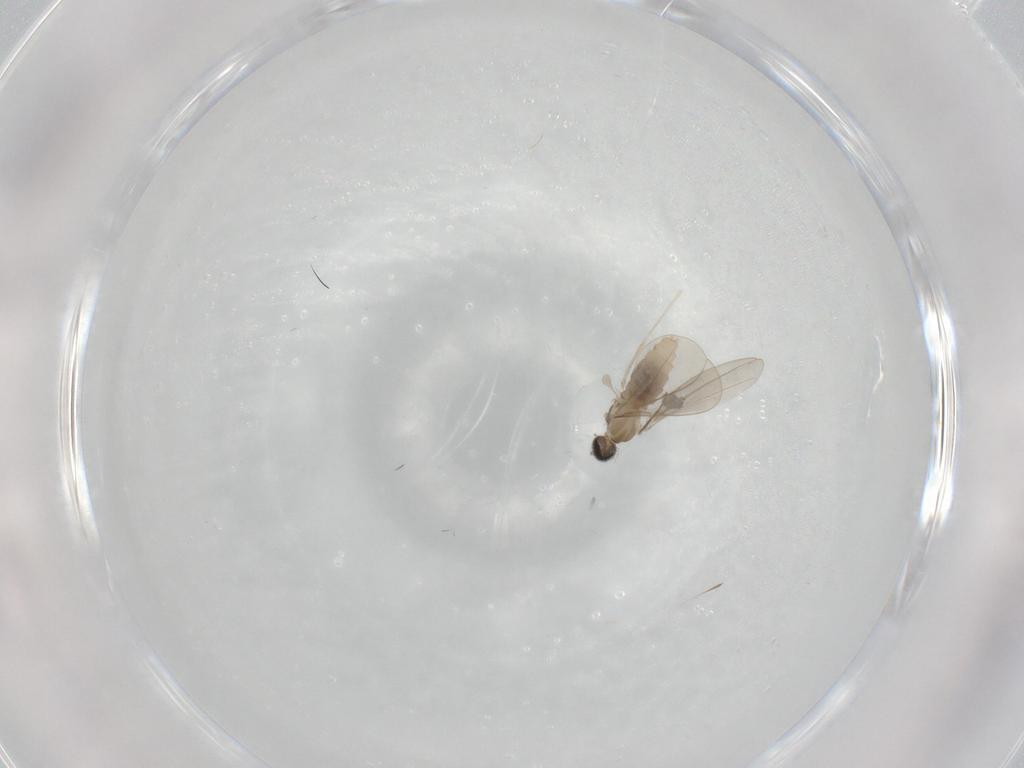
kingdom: Animalia
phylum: Arthropoda
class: Insecta
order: Diptera
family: Cecidomyiidae
